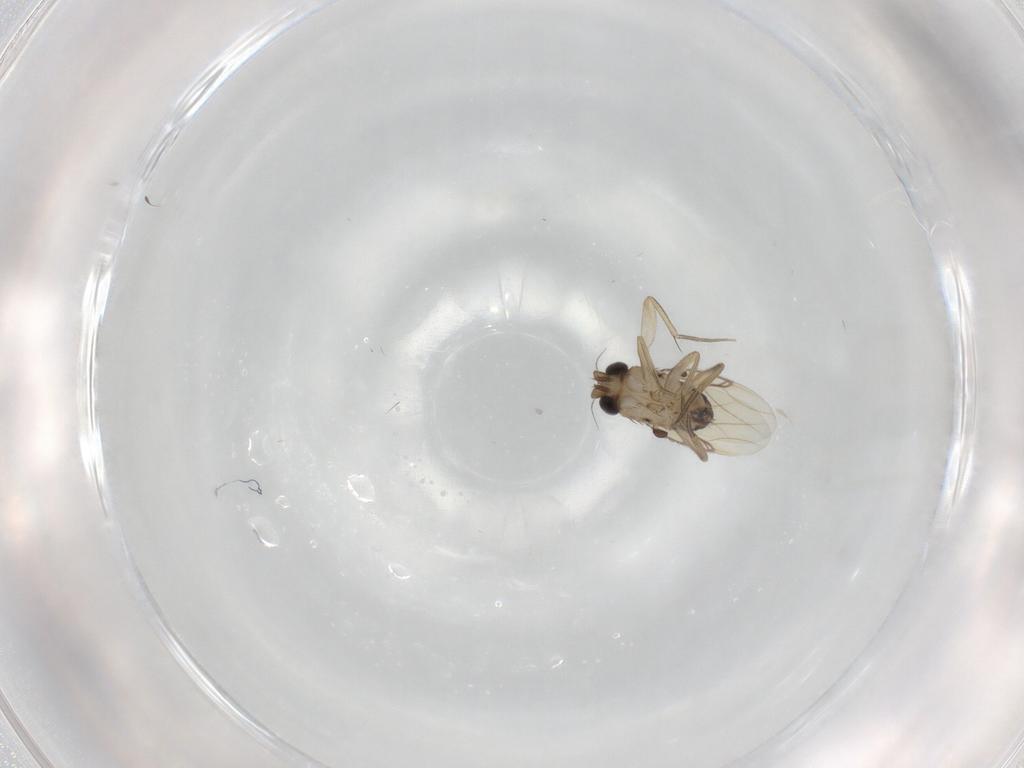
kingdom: Animalia
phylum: Arthropoda
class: Insecta
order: Diptera
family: Phoridae
